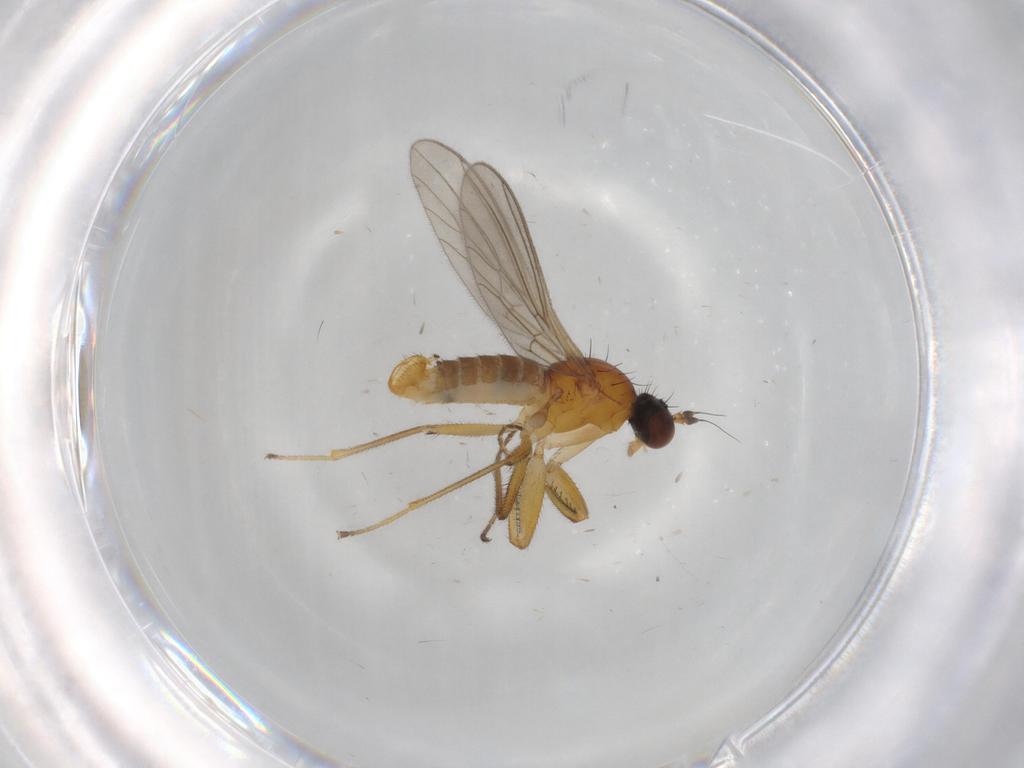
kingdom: Animalia
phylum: Arthropoda
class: Insecta
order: Diptera
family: Empididae
